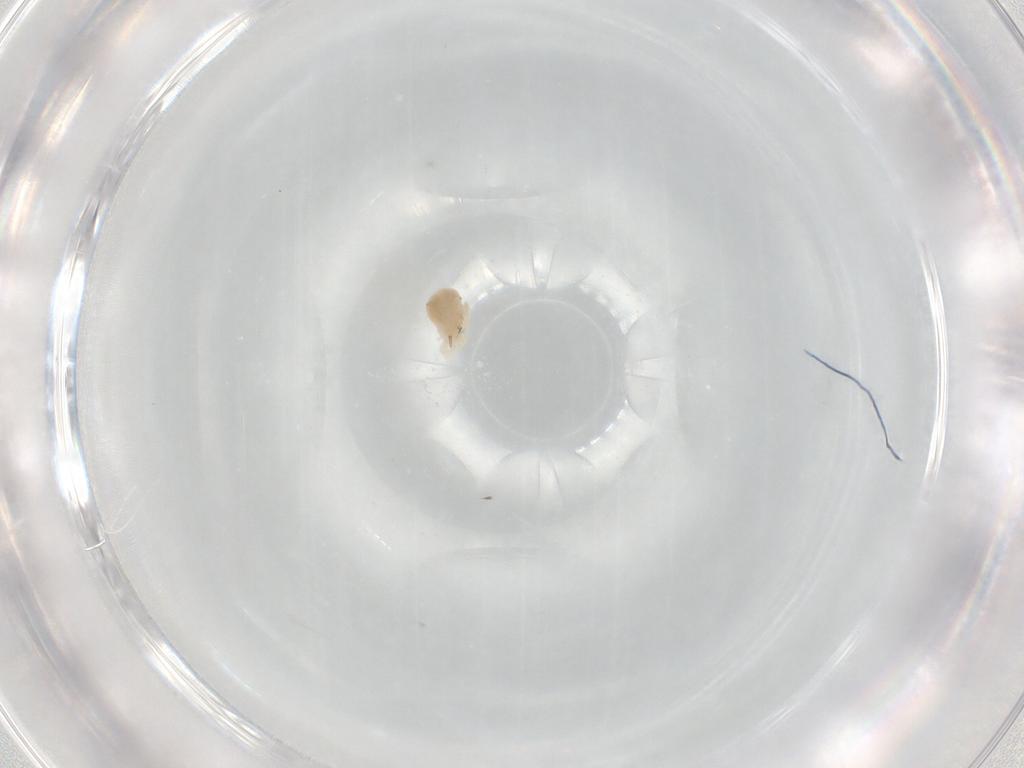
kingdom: Animalia
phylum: Arthropoda
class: Arachnida
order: Trombidiformes
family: Anystidae
